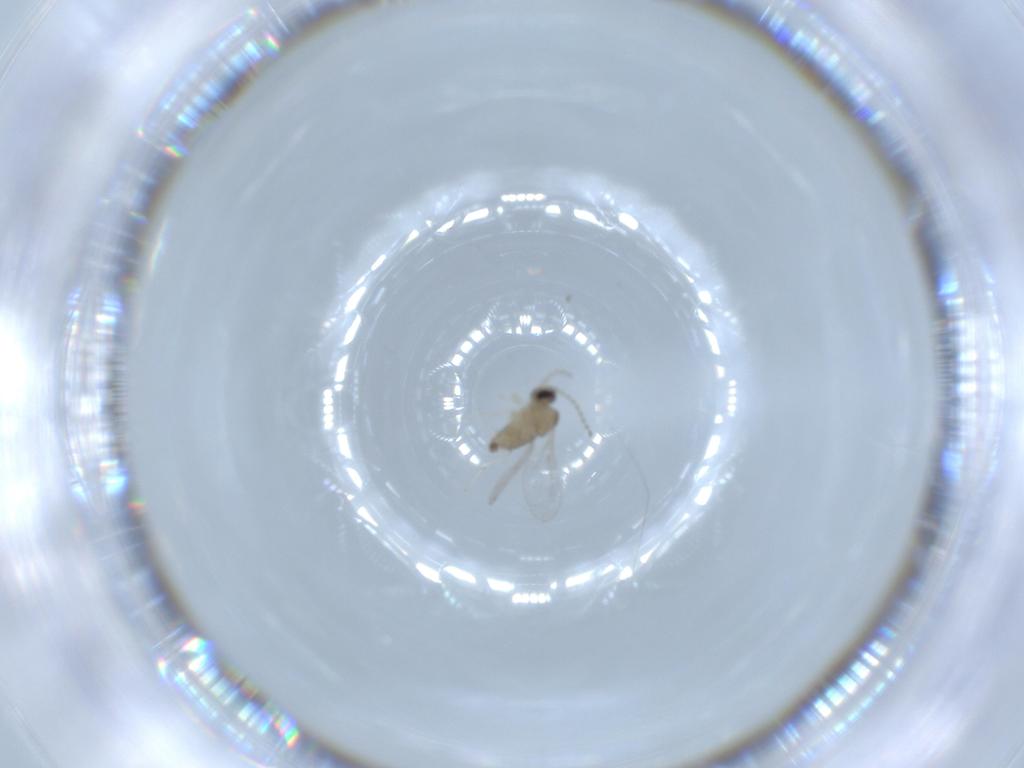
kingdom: Animalia
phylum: Arthropoda
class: Insecta
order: Diptera
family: Cecidomyiidae
